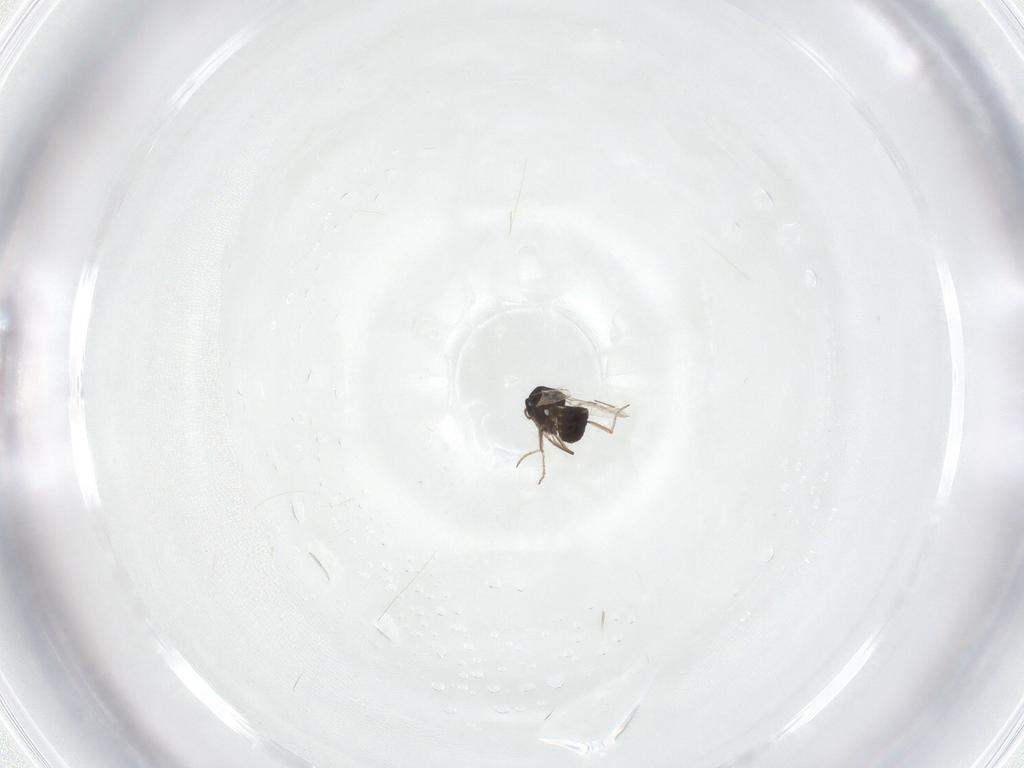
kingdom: Animalia
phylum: Arthropoda
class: Insecta
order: Diptera
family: Ceratopogonidae
